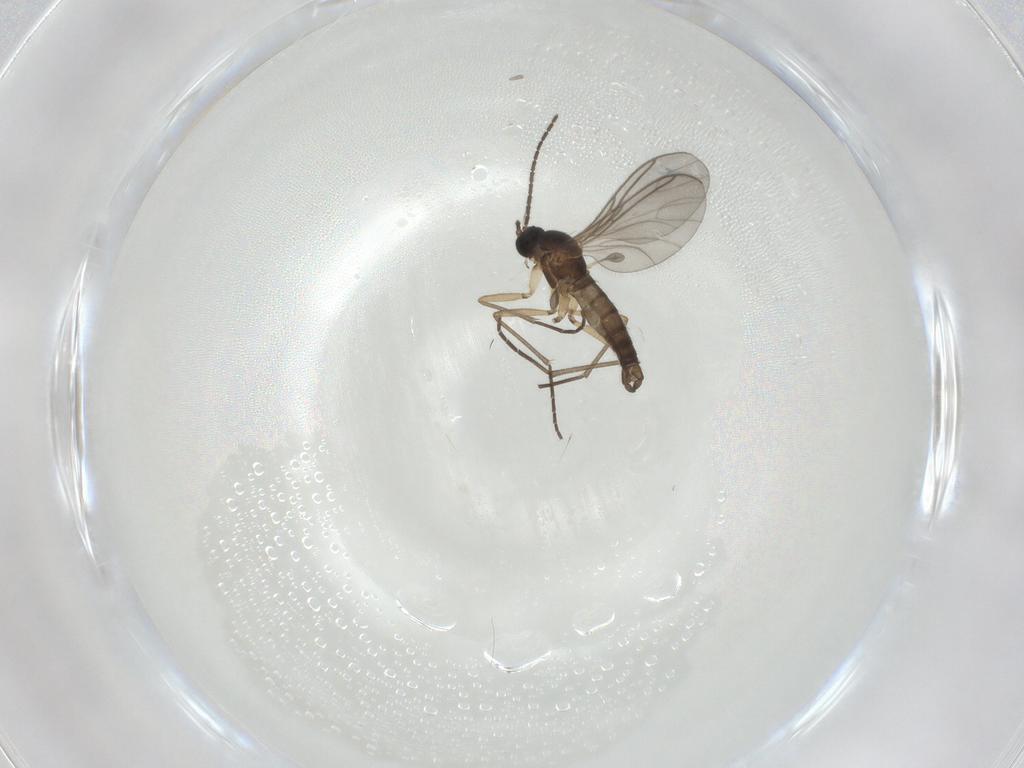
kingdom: Animalia
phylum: Arthropoda
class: Insecta
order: Diptera
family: Sciaridae
